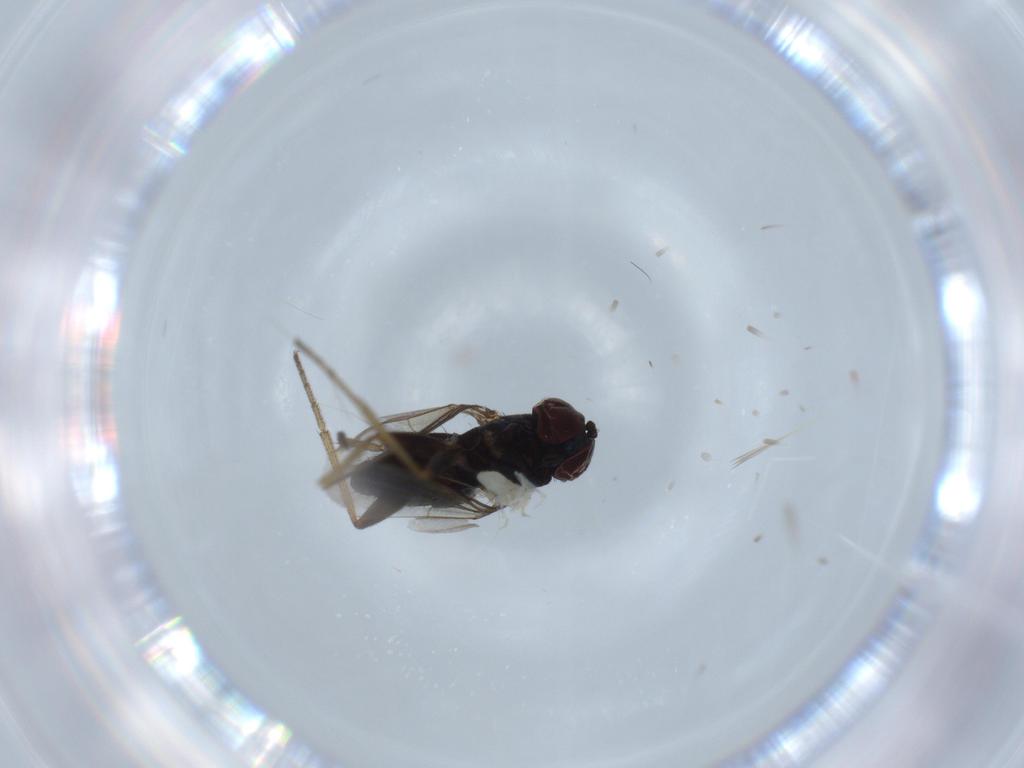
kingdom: Animalia
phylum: Arthropoda
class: Insecta
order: Diptera
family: Dolichopodidae
